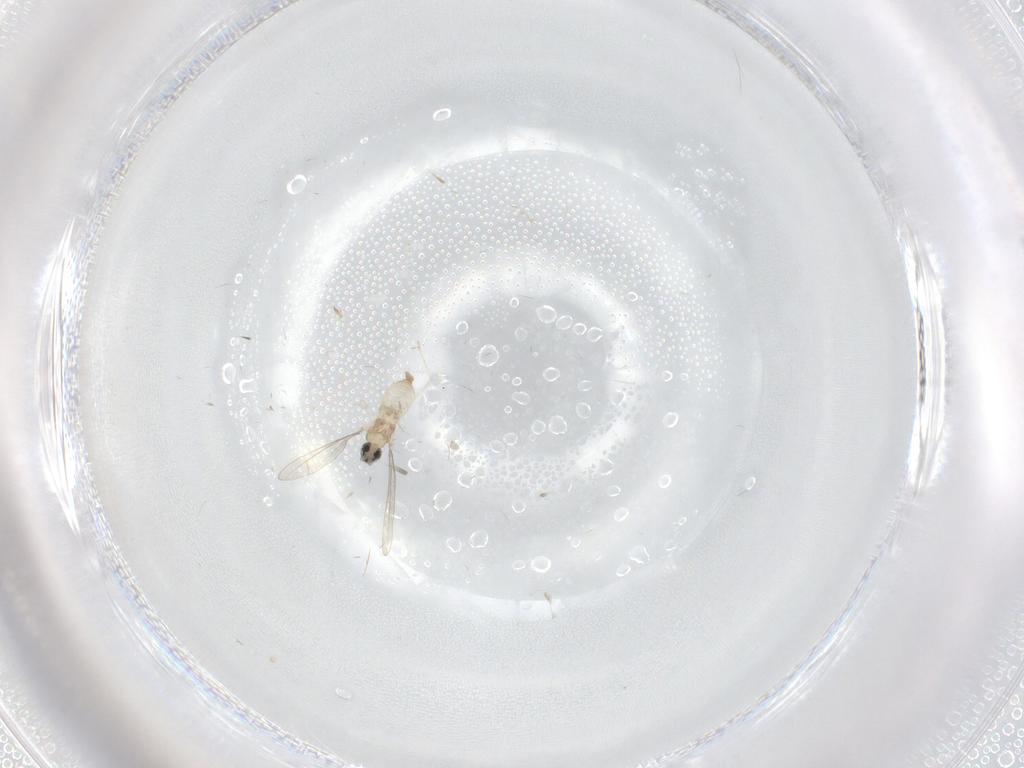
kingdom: Animalia
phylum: Arthropoda
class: Insecta
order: Diptera
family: Cecidomyiidae
